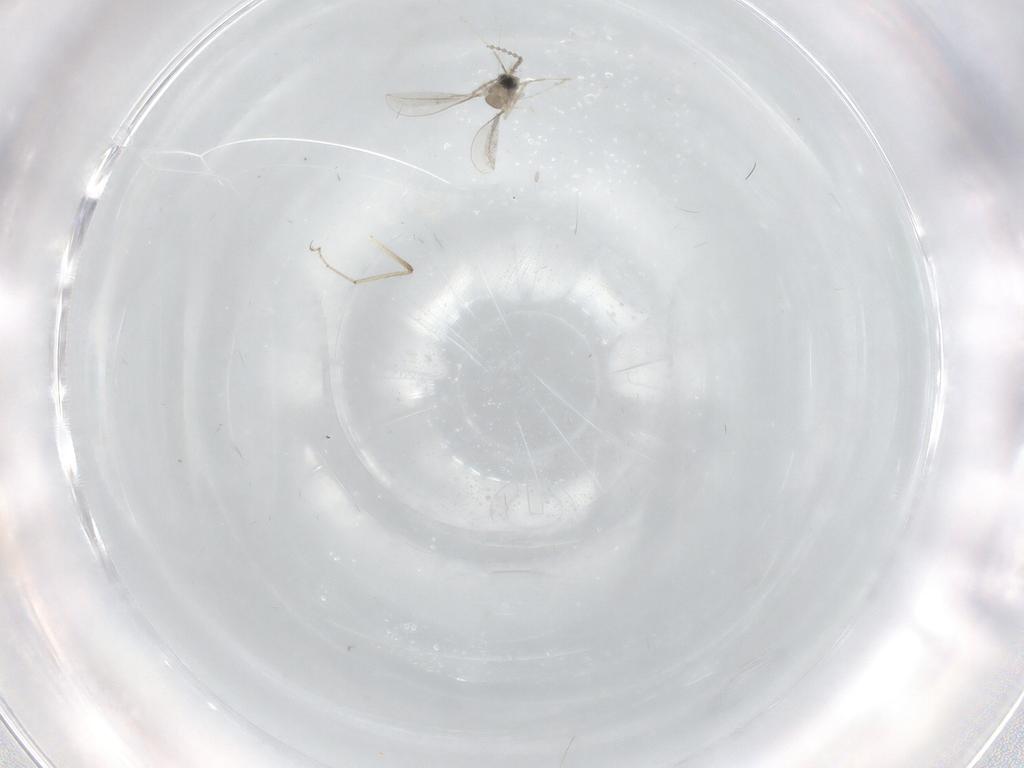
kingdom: Animalia
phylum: Arthropoda
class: Insecta
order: Diptera
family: Cecidomyiidae
